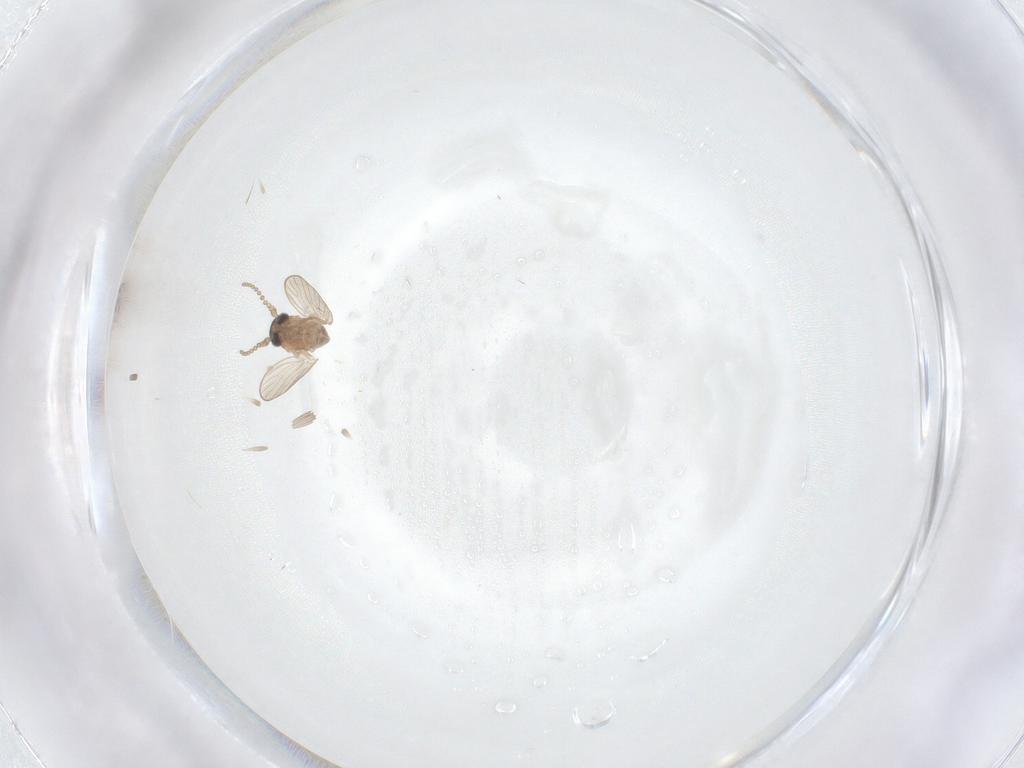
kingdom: Animalia
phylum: Arthropoda
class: Insecta
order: Diptera
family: Psychodidae
